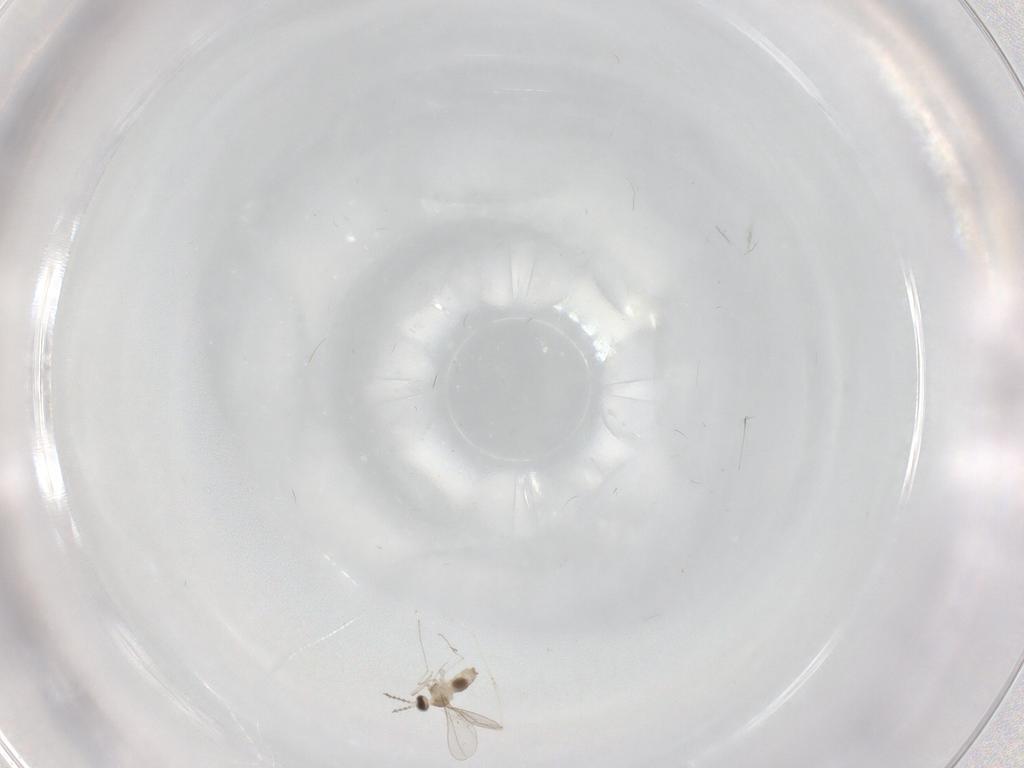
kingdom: Animalia
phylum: Arthropoda
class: Insecta
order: Diptera
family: Cecidomyiidae
